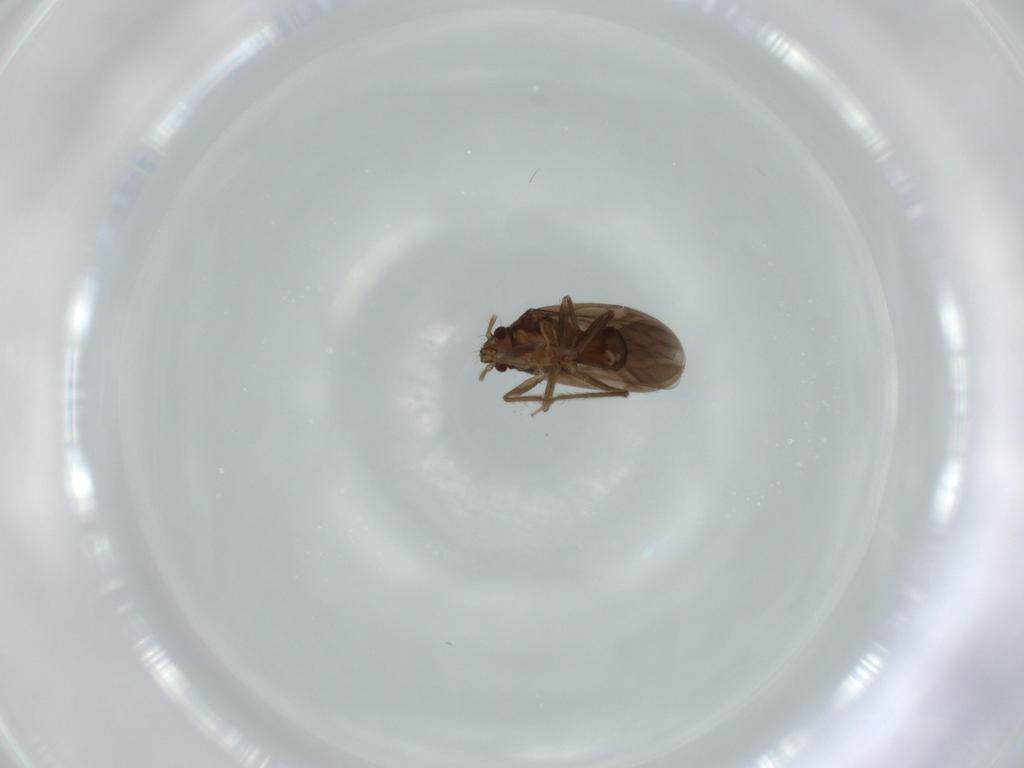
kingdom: Animalia
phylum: Arthropoda
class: Insecta
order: Hemiptera
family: Ceratocombidae
